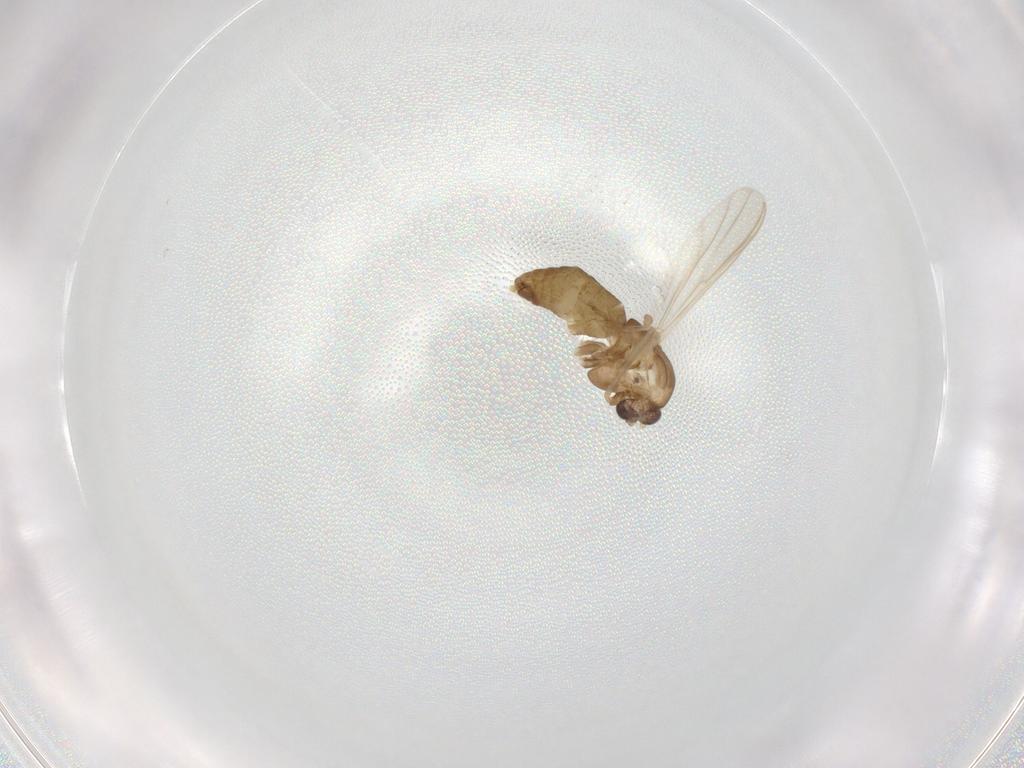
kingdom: Animalia
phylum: Arthropoda
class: Insecta
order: Diptera
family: Chironomidae
